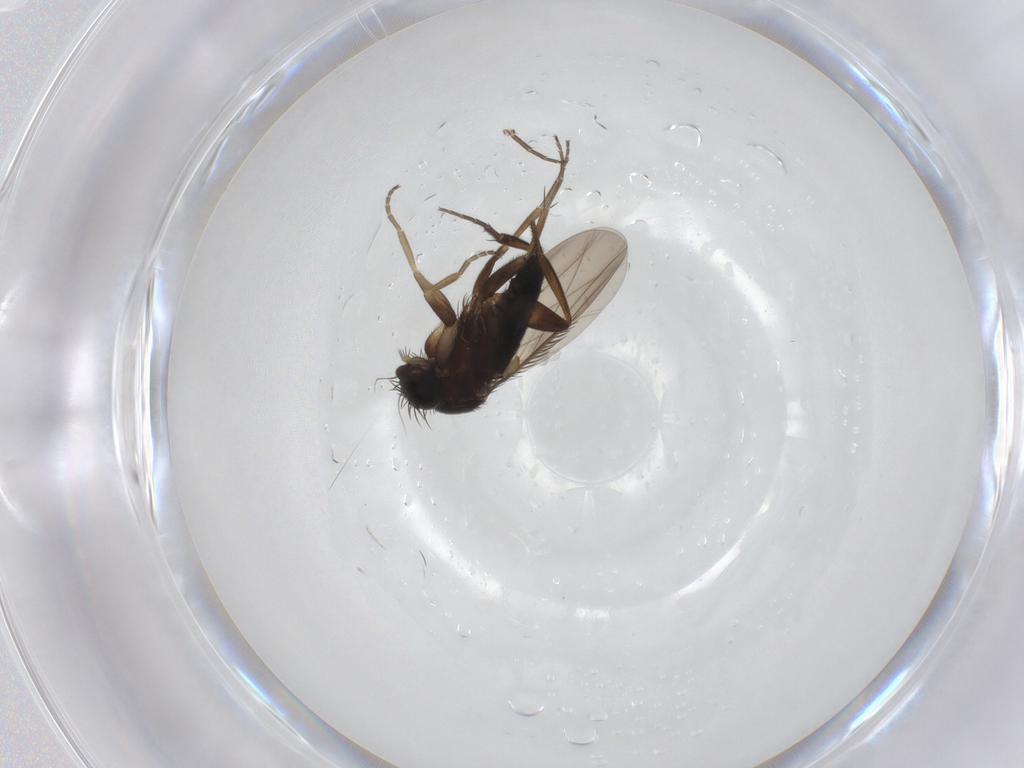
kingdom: Animalia
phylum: Arthropoda
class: Insecta
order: Diptera
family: Phoridae
